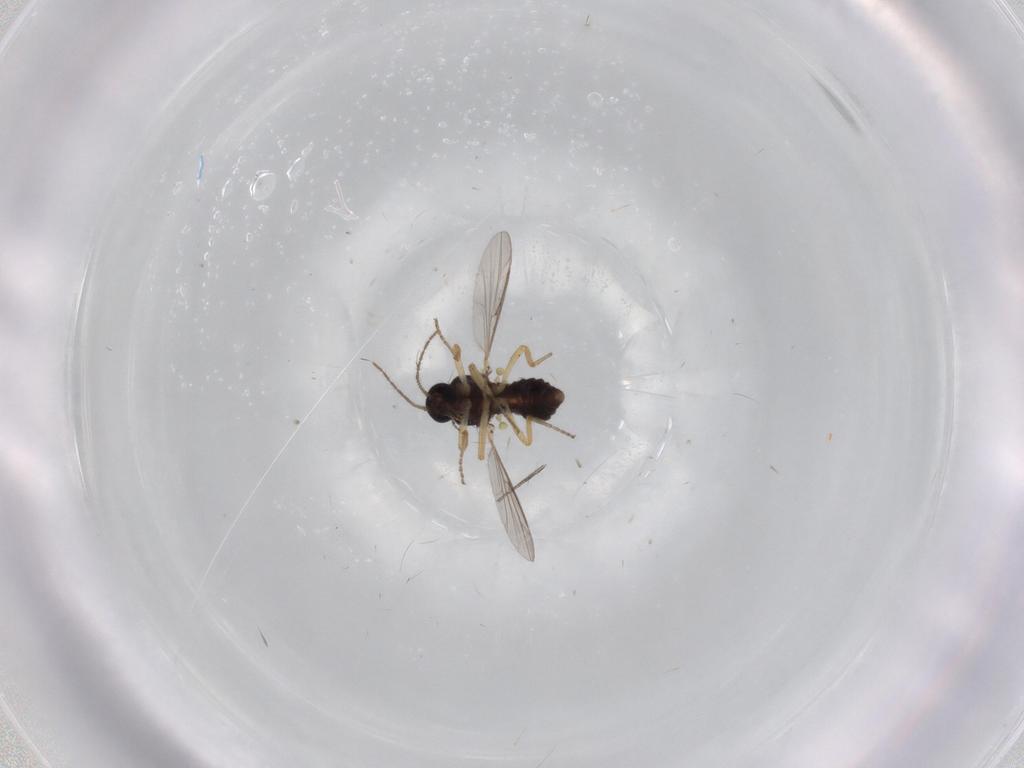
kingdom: Animalia
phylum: Arthropoda
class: Insecta
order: Diptera
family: Ceratopogonidae
